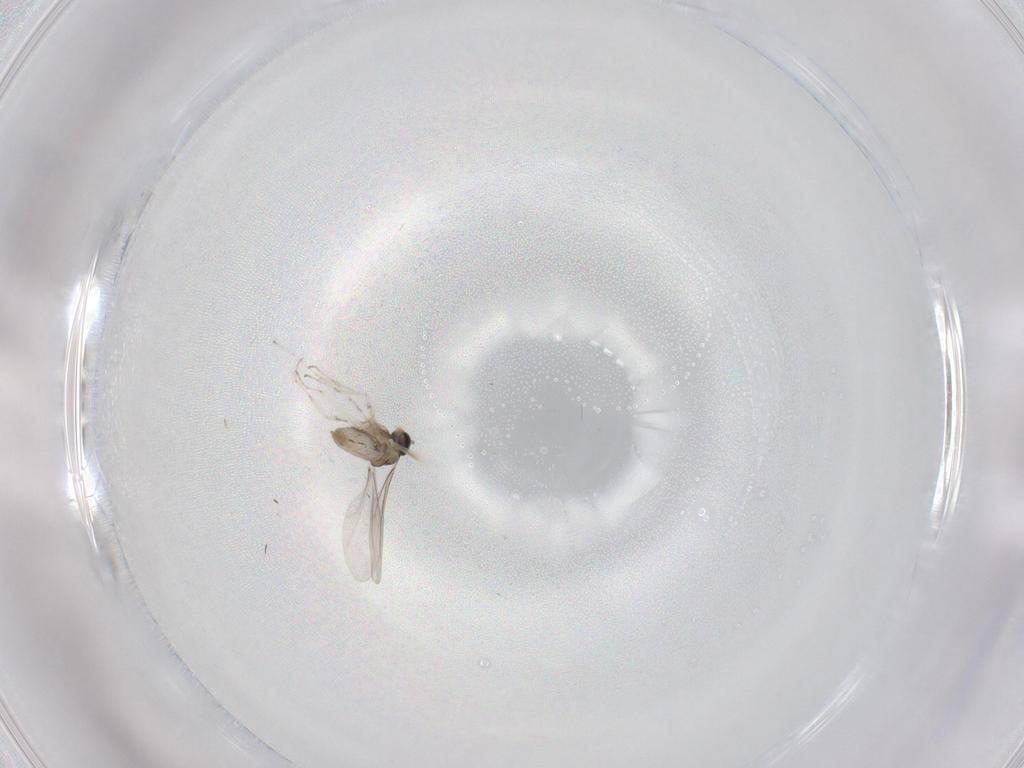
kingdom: Animalia
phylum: Arthropoda
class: Insecta
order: Diptera
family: Cecidomyiidae
